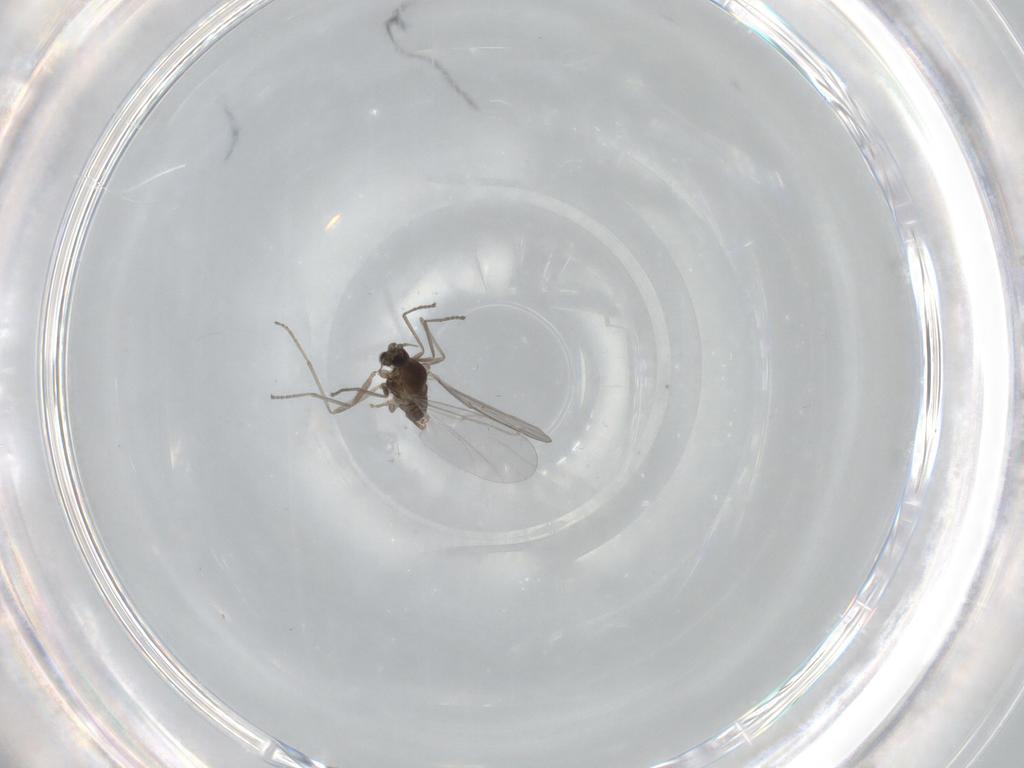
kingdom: Animalia
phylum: Arthropoda
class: Insecta
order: Diptera
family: Cecidomyiidae
